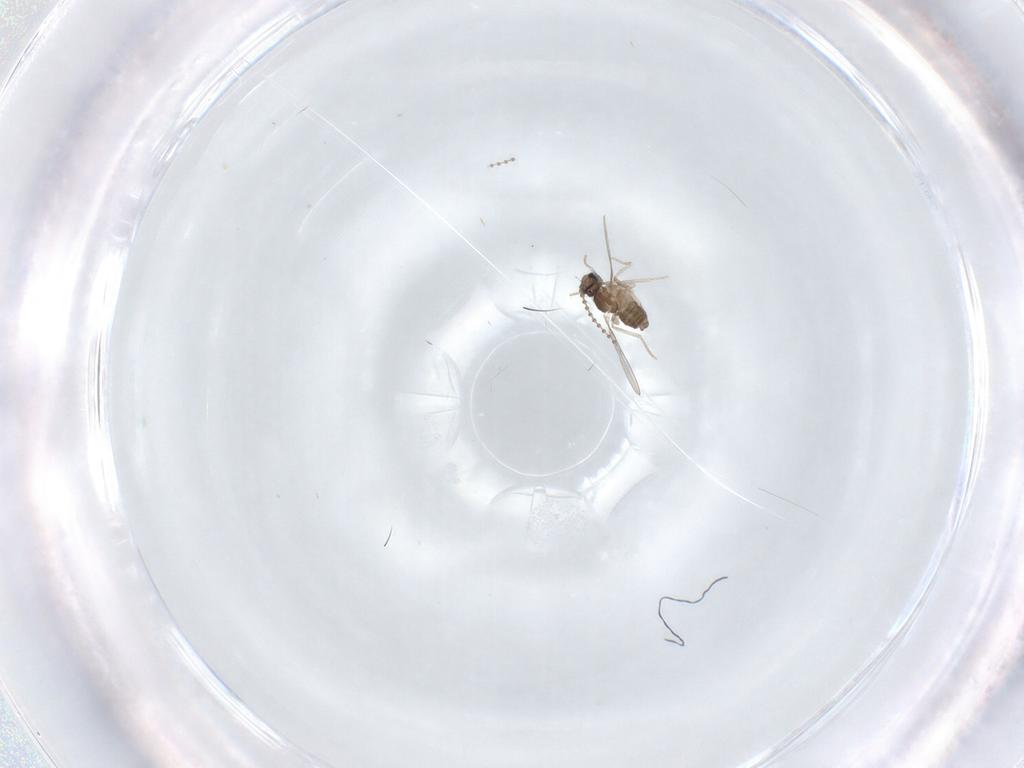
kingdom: Animalia
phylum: Arthropoda
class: Insecta
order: Diptera
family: Cecidomyiidae
